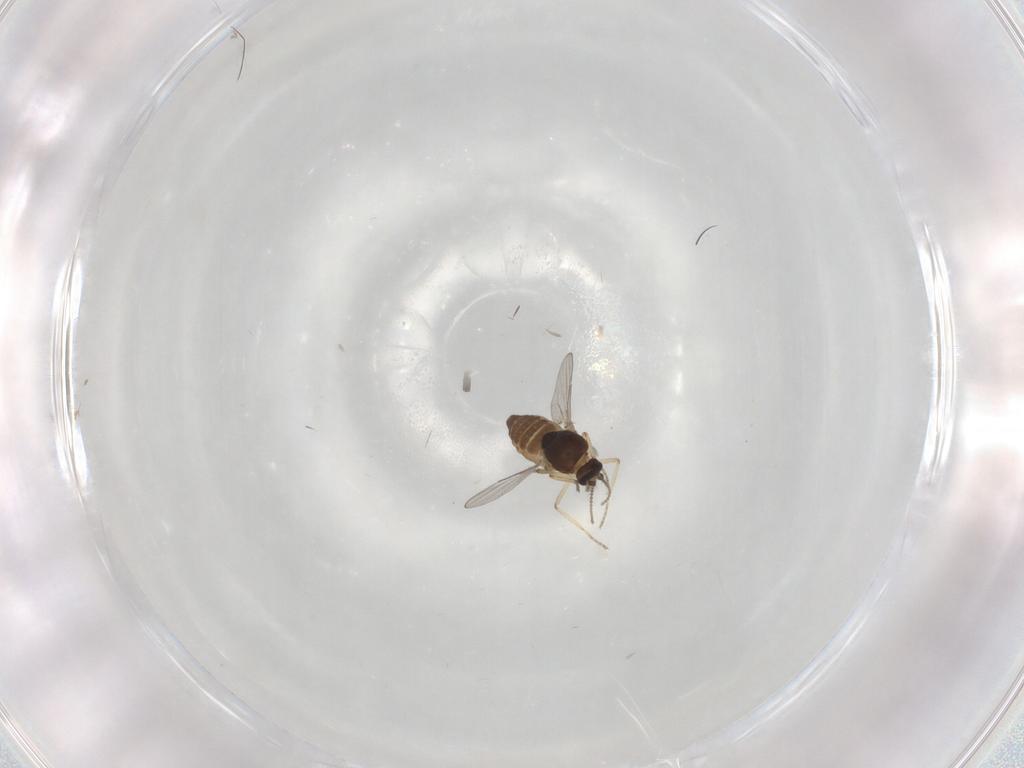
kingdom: Animalia
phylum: Arthropoda
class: Insecta
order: Diptera
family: Ceratopogonidae
